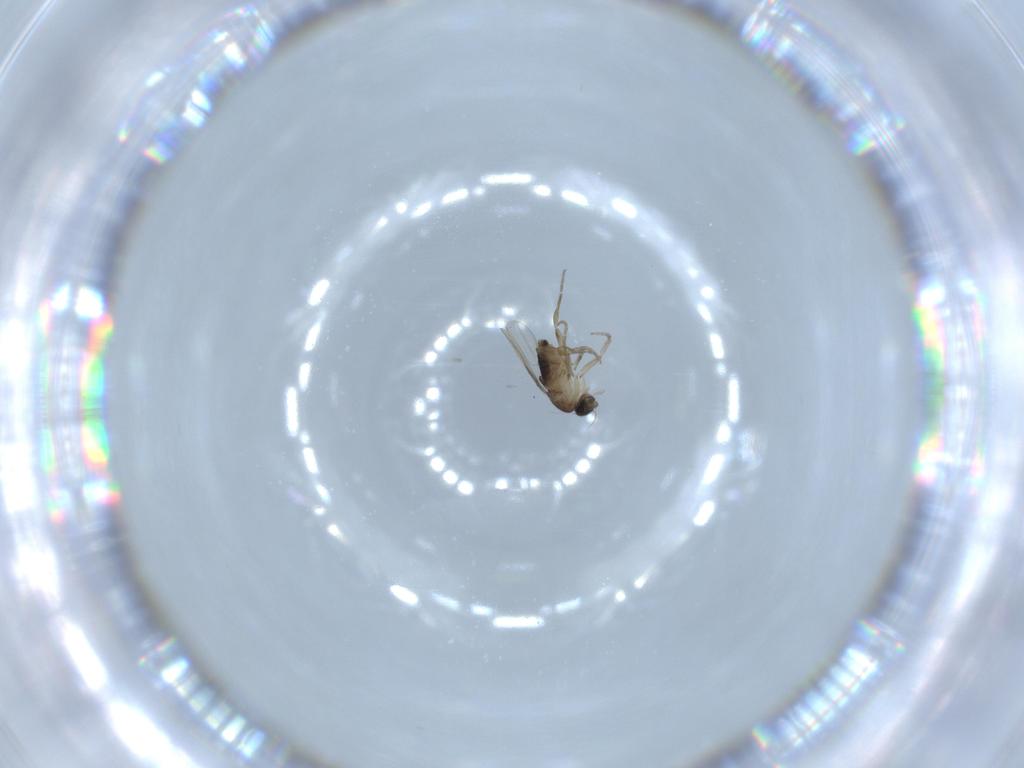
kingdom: Animalia
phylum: Arthropoda
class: Insecta
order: Diptera
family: Phoridae
